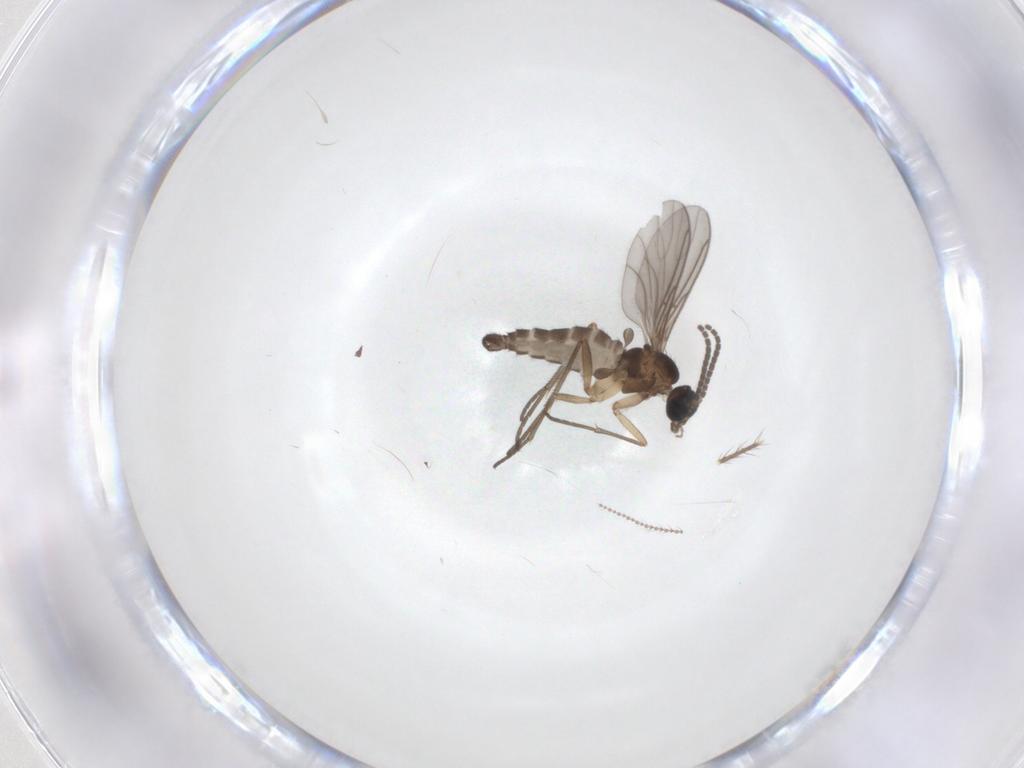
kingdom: Animalia
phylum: Arthropoda
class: Insecta
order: Diptera
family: Sciaridae
